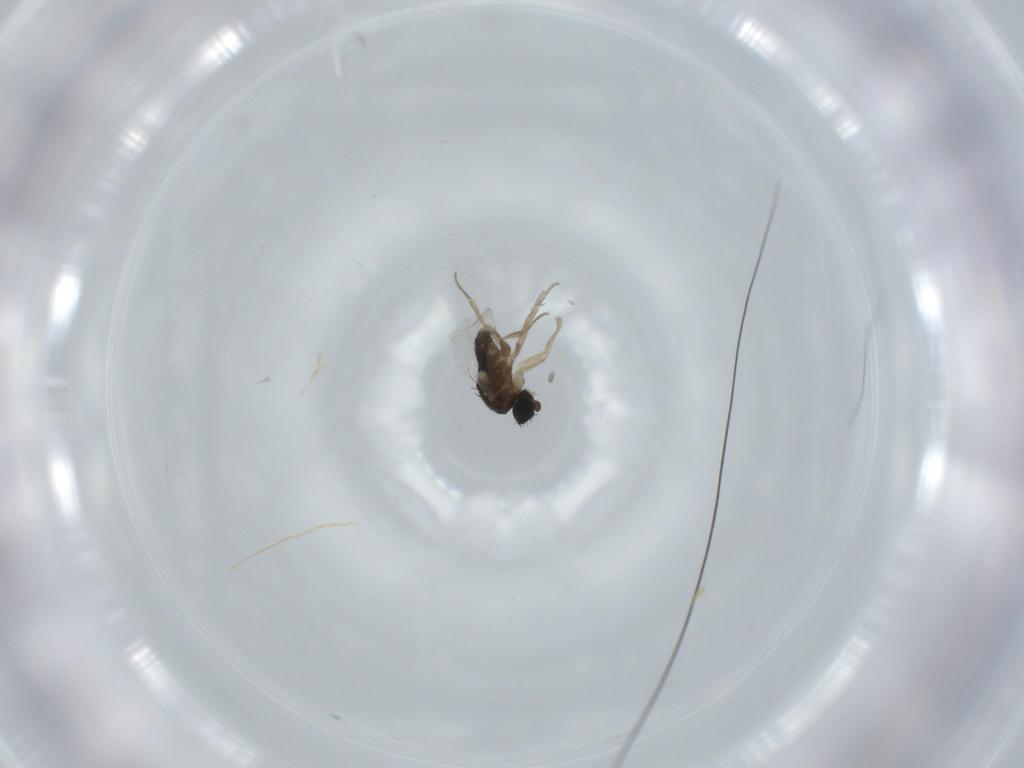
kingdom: Animalia
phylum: Arthropoda
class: Insecta
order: Diptera
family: Phoridae
